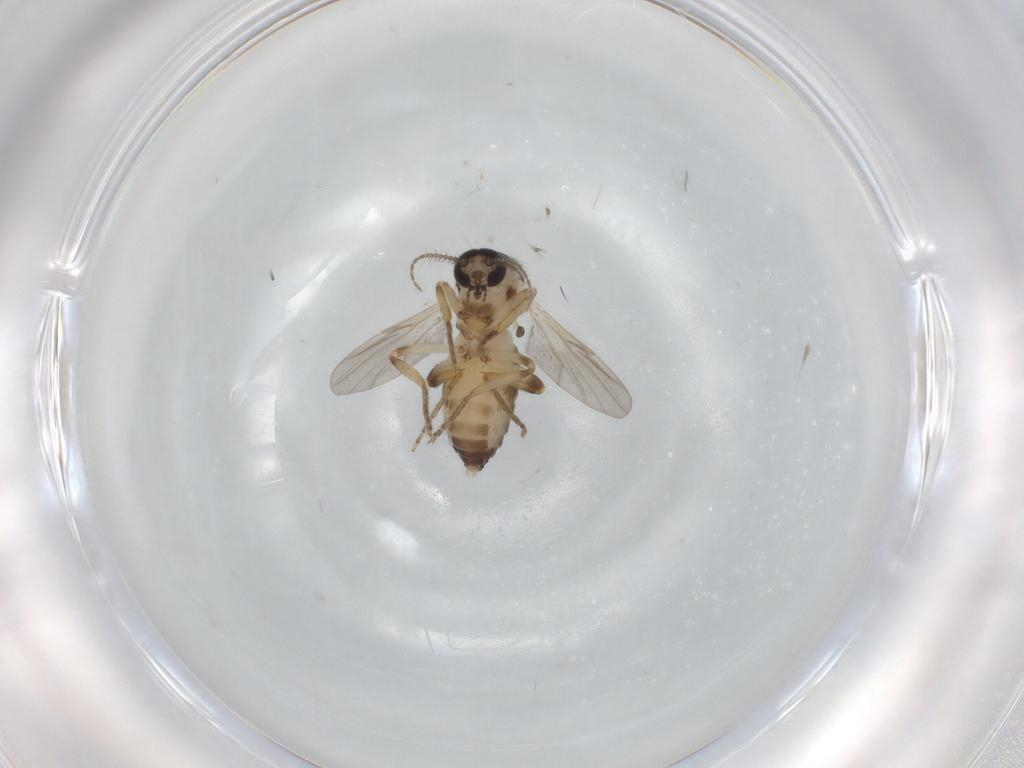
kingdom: Animalia
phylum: Arthropoda
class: Insecta
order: Diptera
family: Ceratopogonidae
